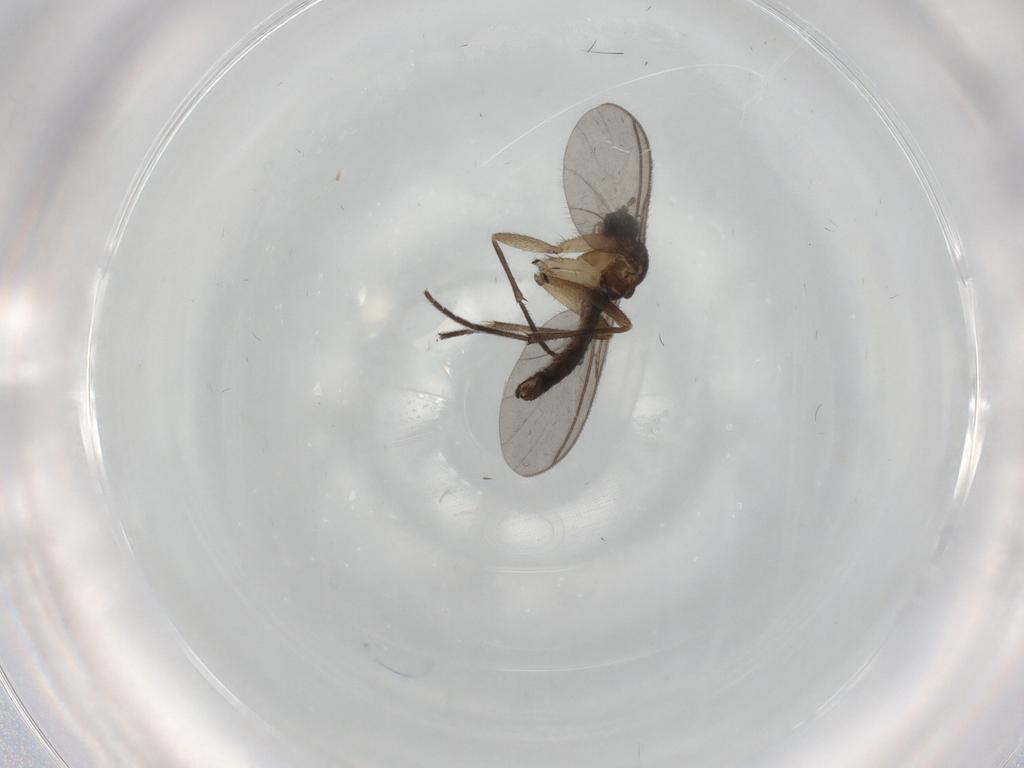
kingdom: Animalia
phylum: Arthropoda
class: Insecta
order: Diptera
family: Sciaridae
